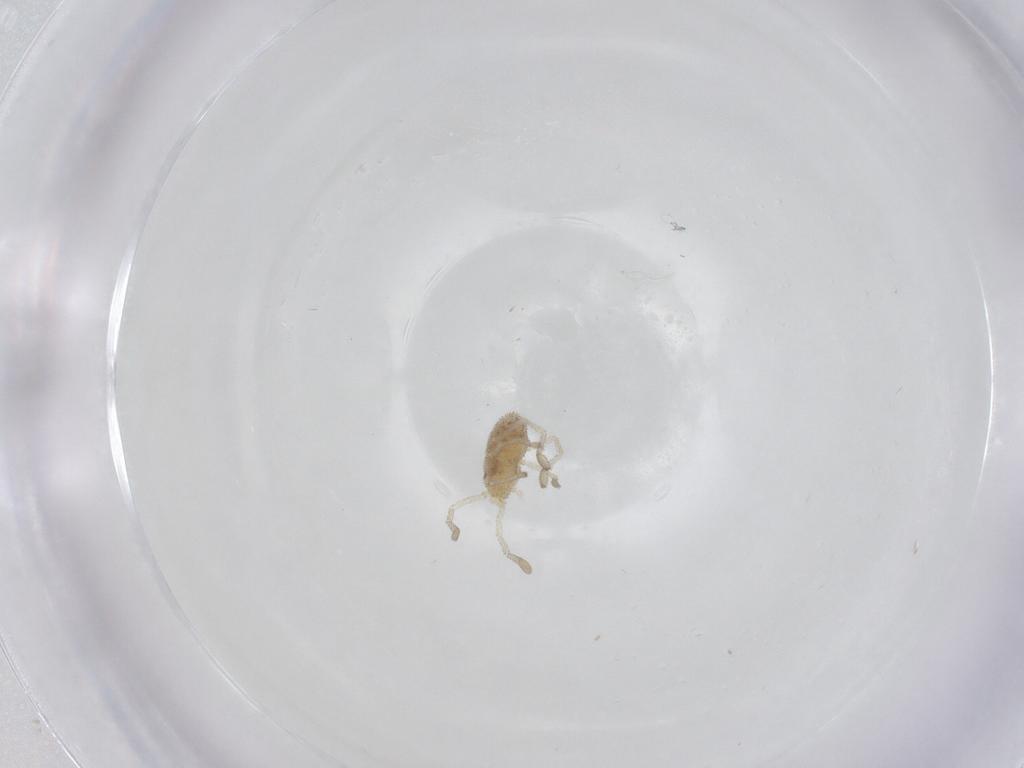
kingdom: Animalia
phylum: Arthropoda
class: Arachnida
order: Trombidiformes
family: Smarididae
